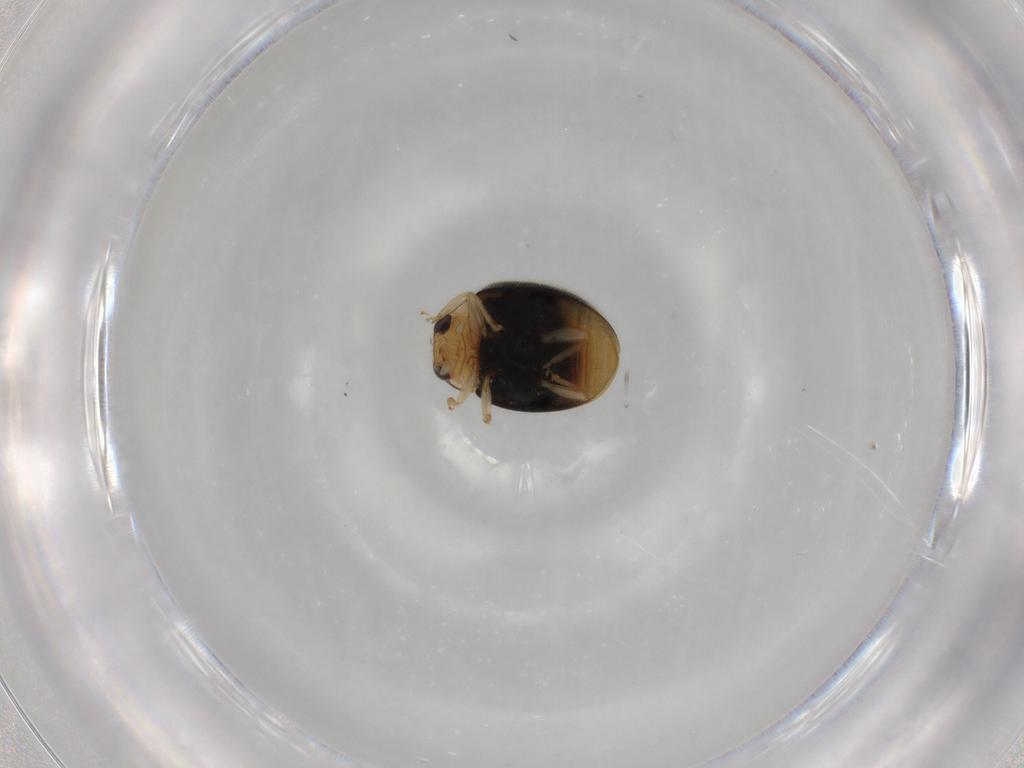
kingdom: Animalia
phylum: Arthropoda
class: Insecta
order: Coleoptera
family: Coccinellidae
